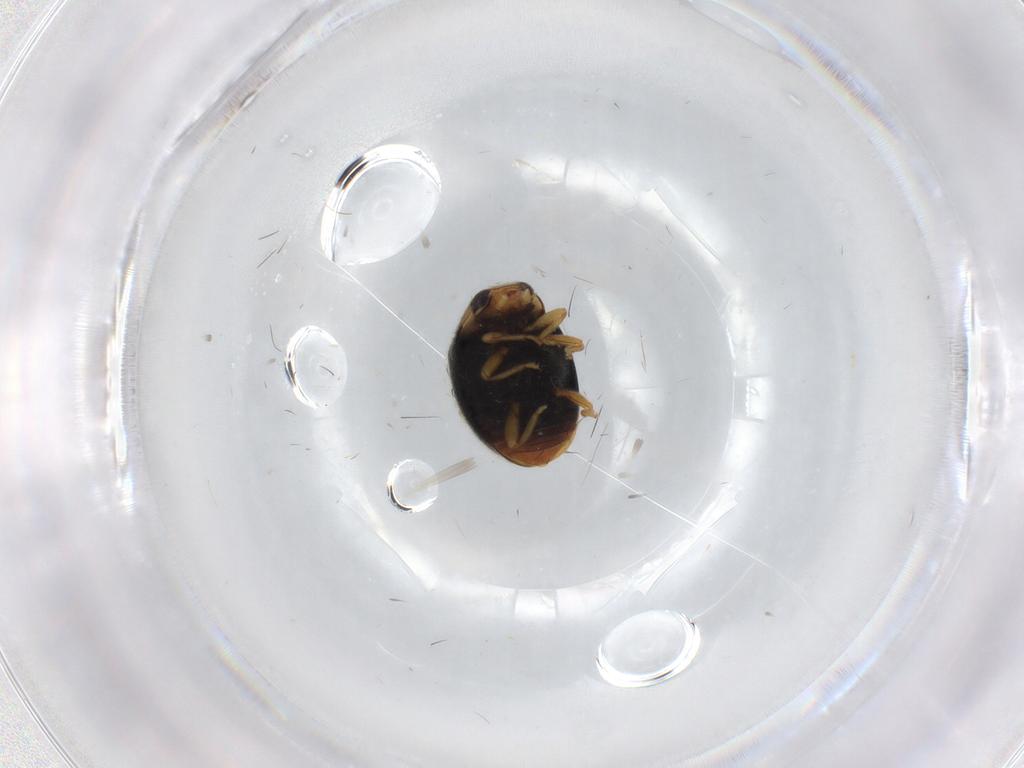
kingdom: Animalia
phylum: Arthropoda
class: Insecta
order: Coleoptera
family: Coccinellidae
